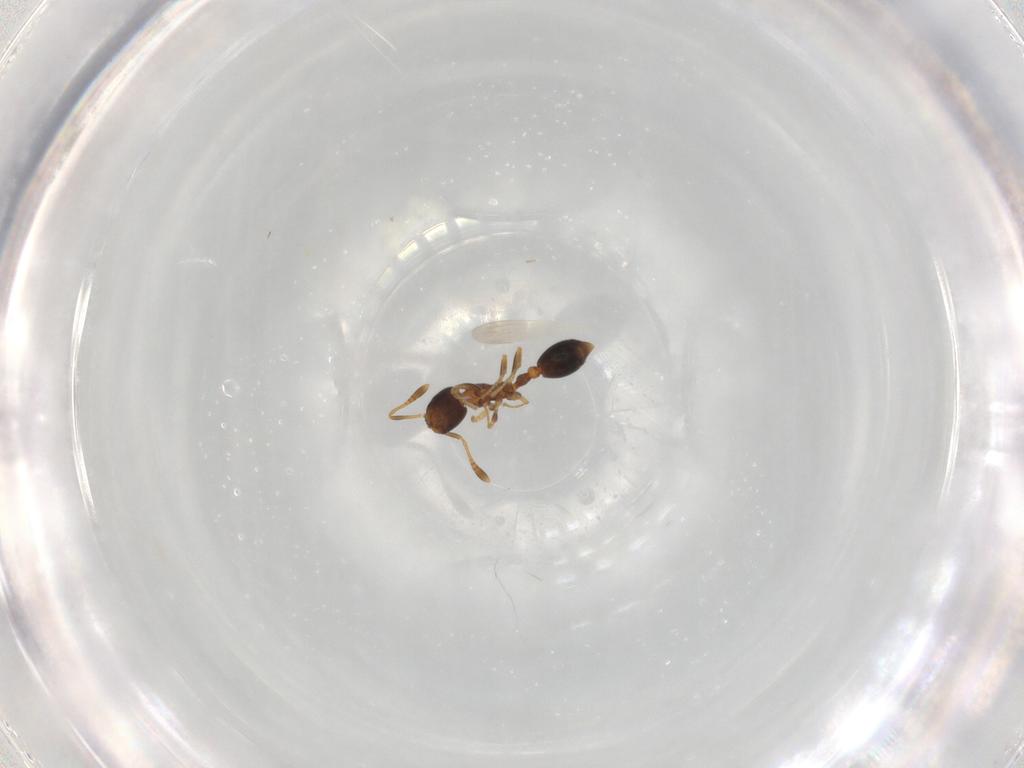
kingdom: Animalia
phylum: Arthropoda
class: Insecta
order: Hymenoptera
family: Formicidae
